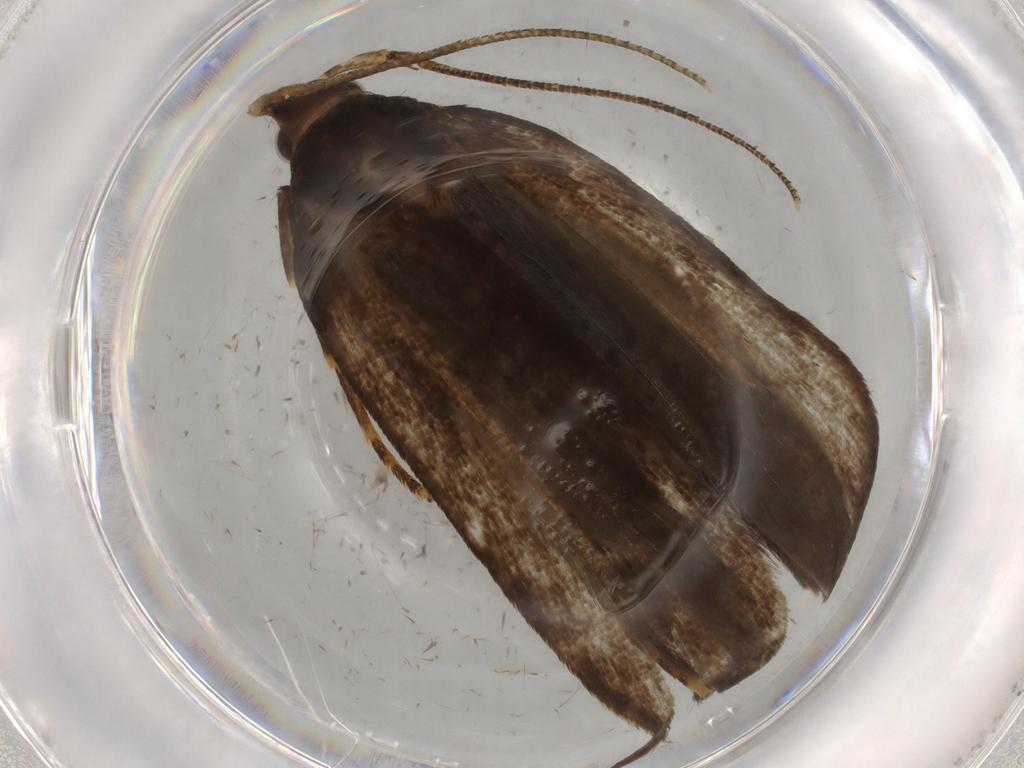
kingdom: Animalia
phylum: Arthropoda
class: Insecta
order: Lepidoptera
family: Autostichidae
